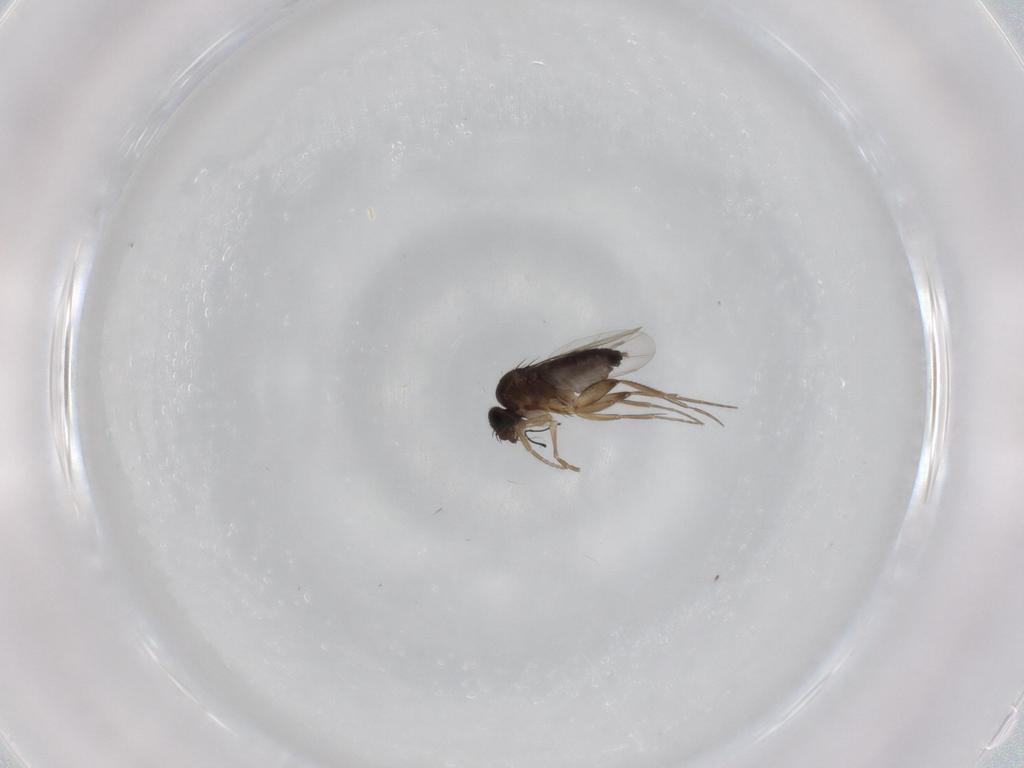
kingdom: Animalia
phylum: Arthropoda
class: Insecta
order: Diptera
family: Phoridae
